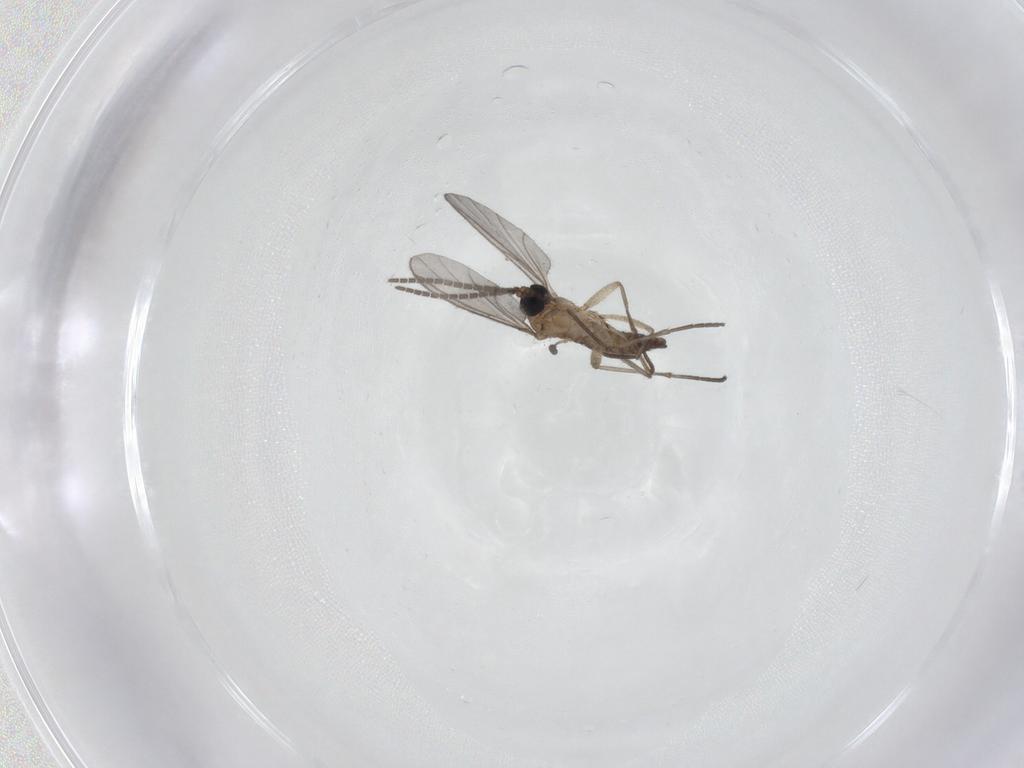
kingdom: Animalia
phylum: Arthropoda
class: Insecta
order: Diptera
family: Sciaridae
